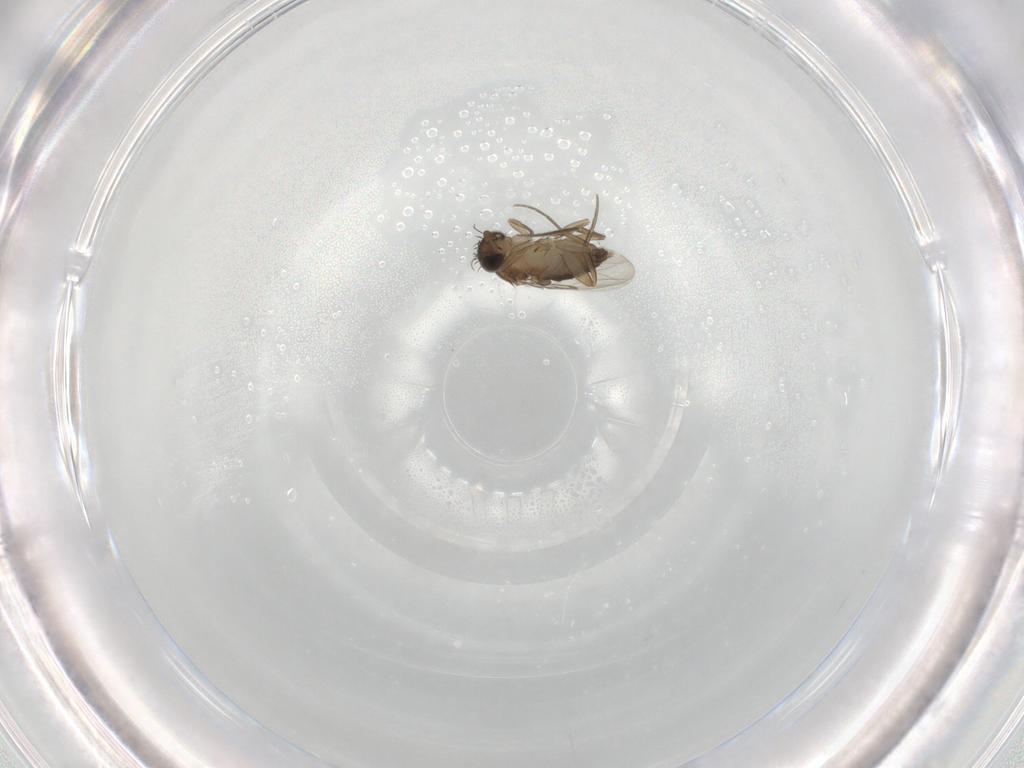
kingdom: Animalia
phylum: Arthropoda
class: Insecta
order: Diptera
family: Phoridae
